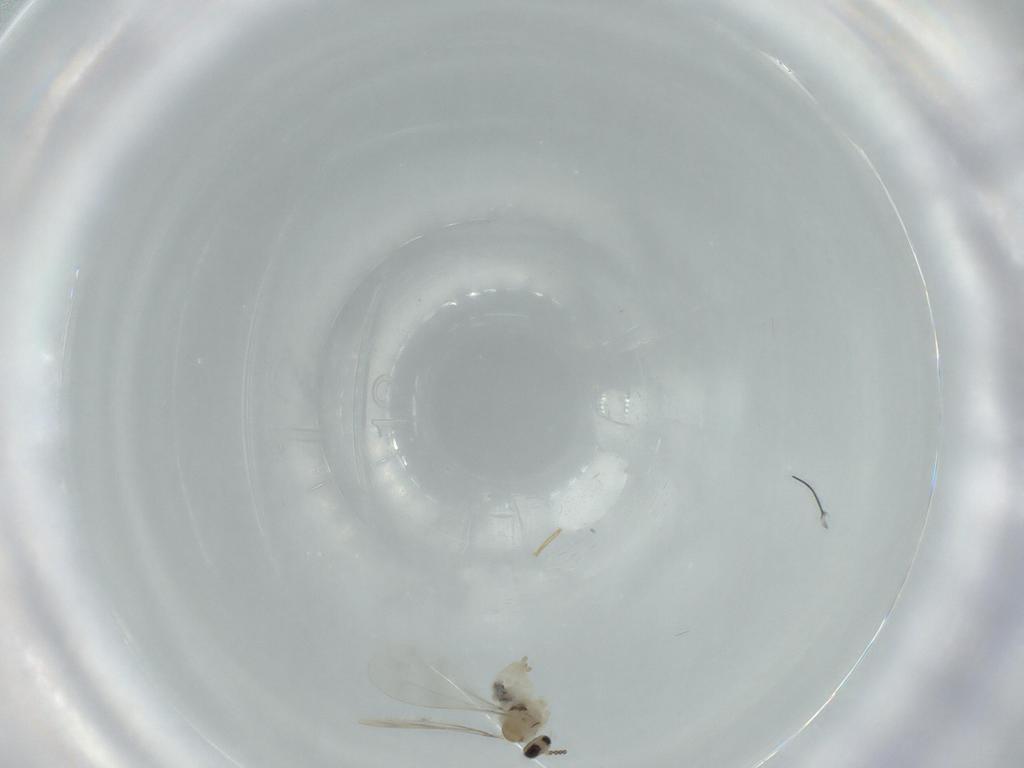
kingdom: Animalia
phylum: Arthropoda
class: Insecta
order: Diptera
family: Cecidomyiidae
